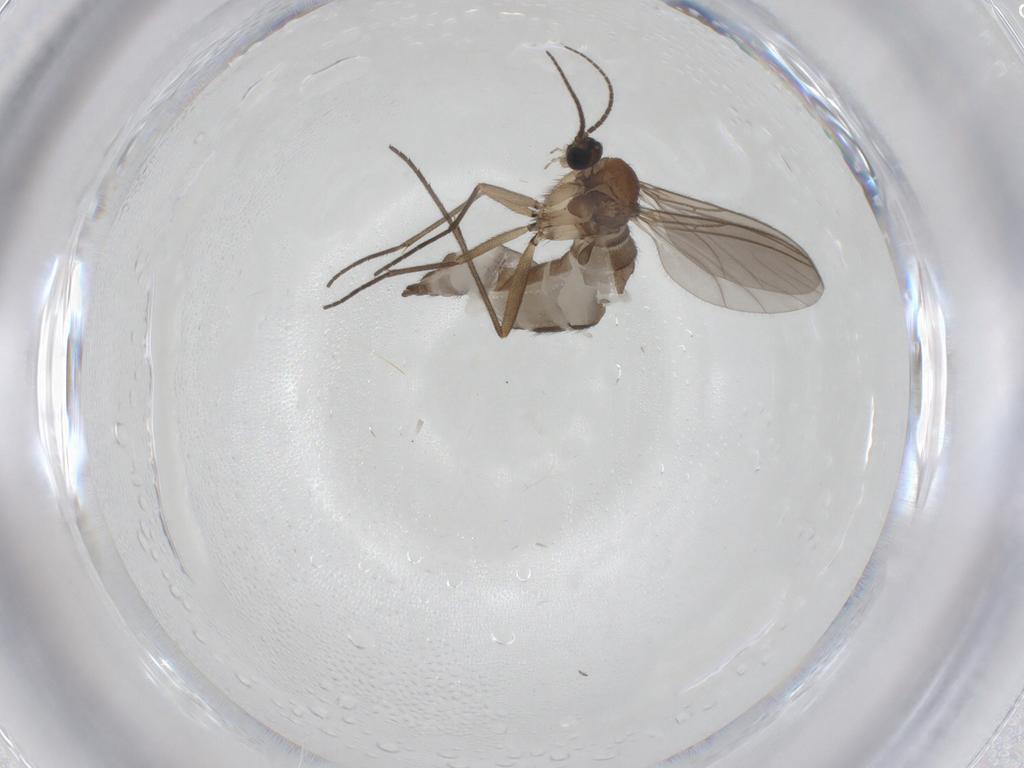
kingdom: Animalia
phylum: Arthropoda
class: Insecta
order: Diptera
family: Sciaridae
